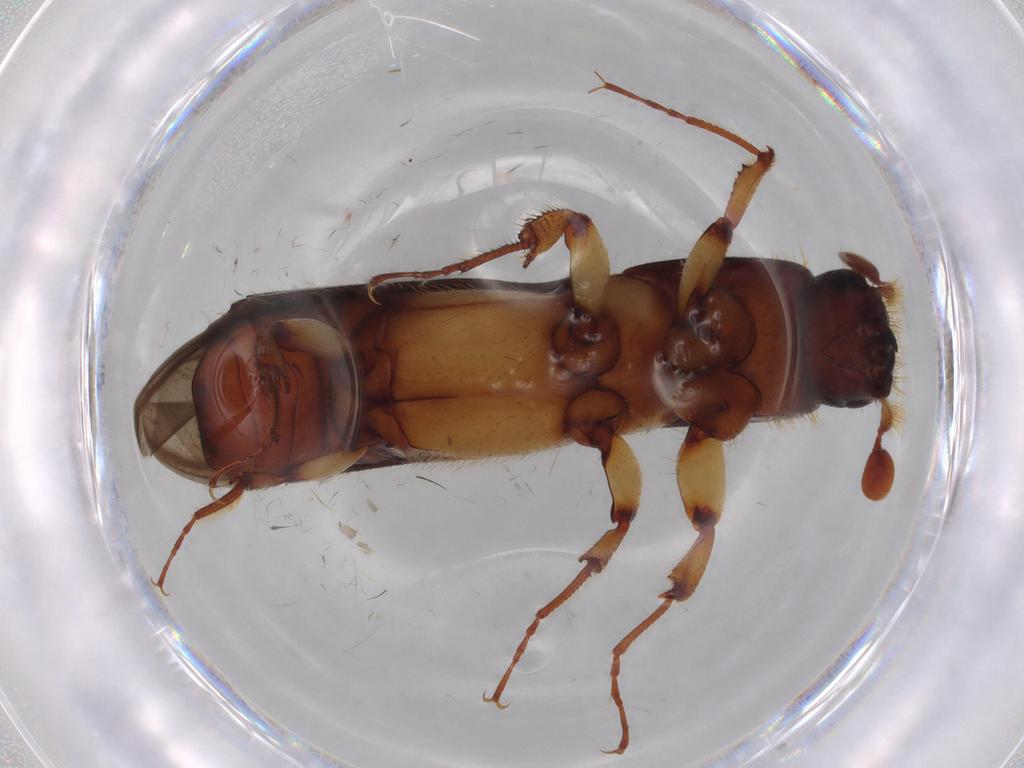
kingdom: Animalia
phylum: Arthropoda
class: Insecta
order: Coleoptera
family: Curculionidae
